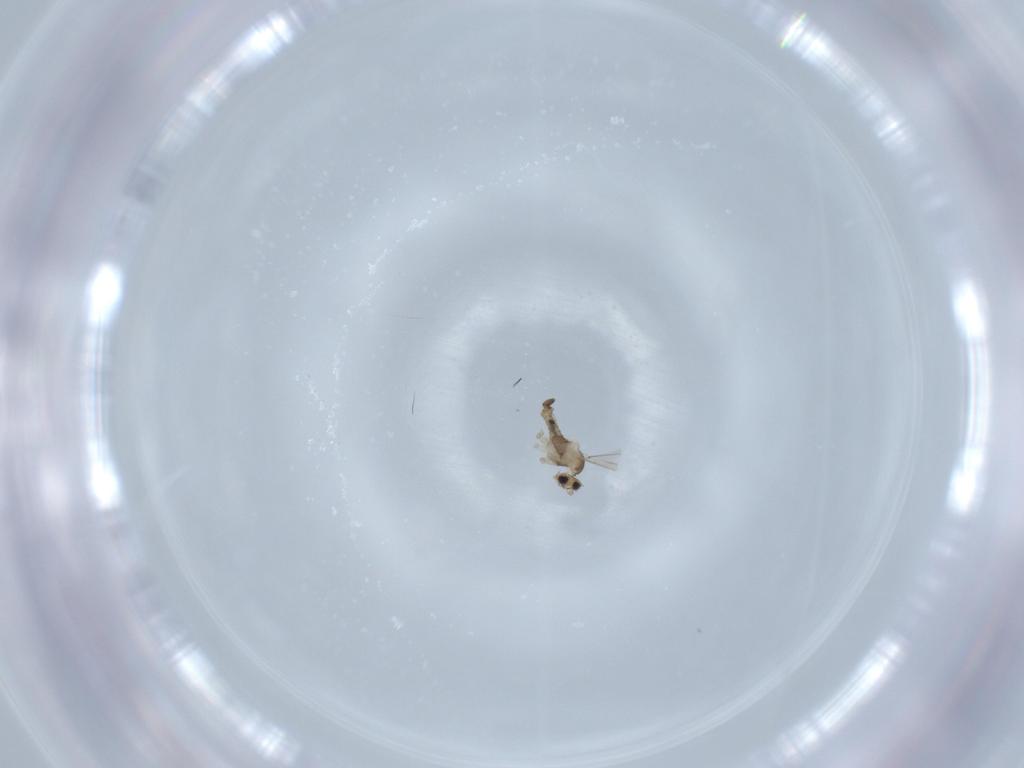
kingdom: Animalia
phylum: Arthropoda
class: Insecta
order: Diptera
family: Cecidomyiidae
